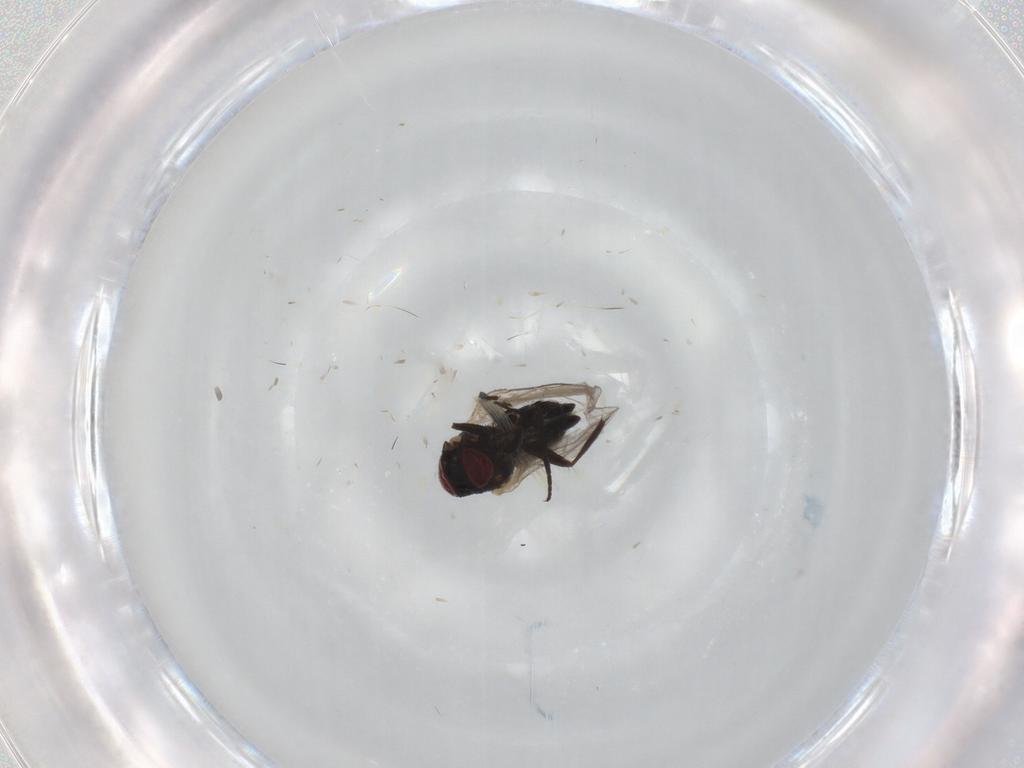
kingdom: Animalia
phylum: Arthropoda
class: Insecta
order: Diptera
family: Chironomidae
